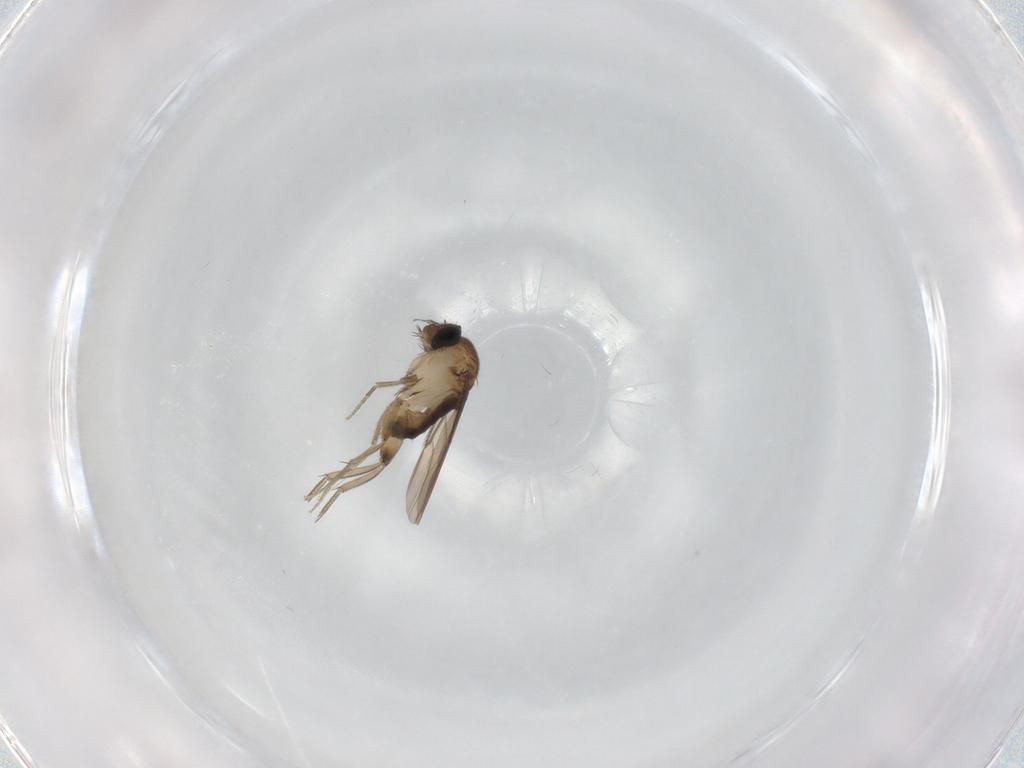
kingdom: Animalia
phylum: Arthropoda
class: Insecta
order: Diptera
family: Phoridae
